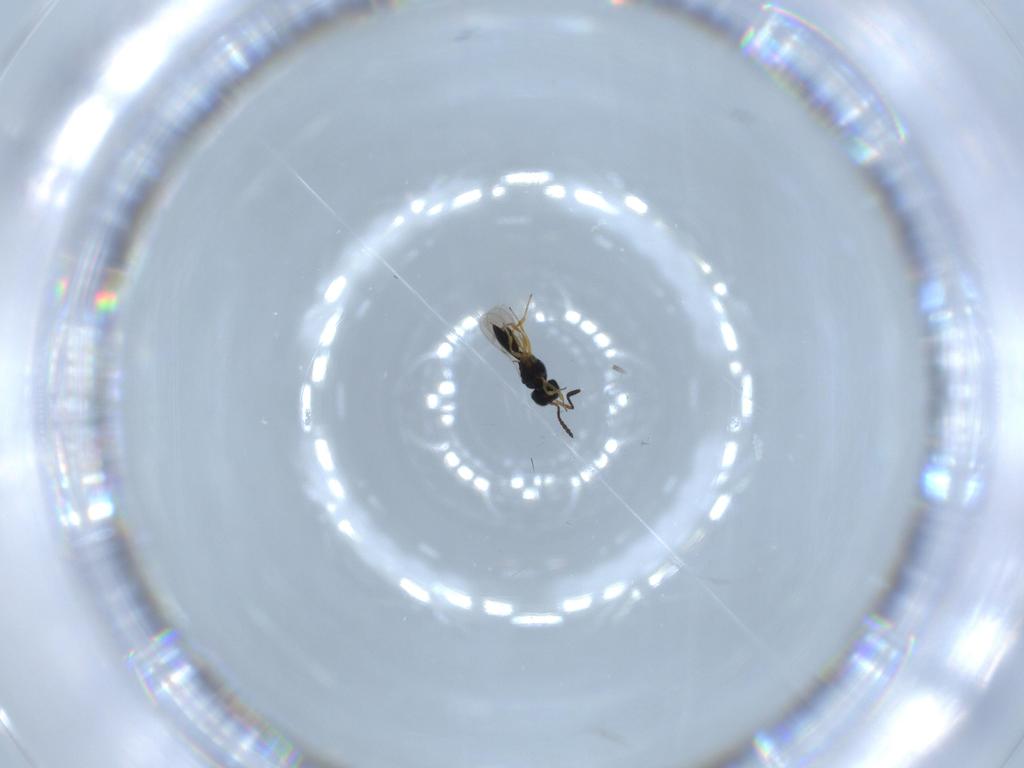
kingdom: Animalia
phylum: Arthropoda
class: Insecta
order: Hymenoptera
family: Scelionidae
